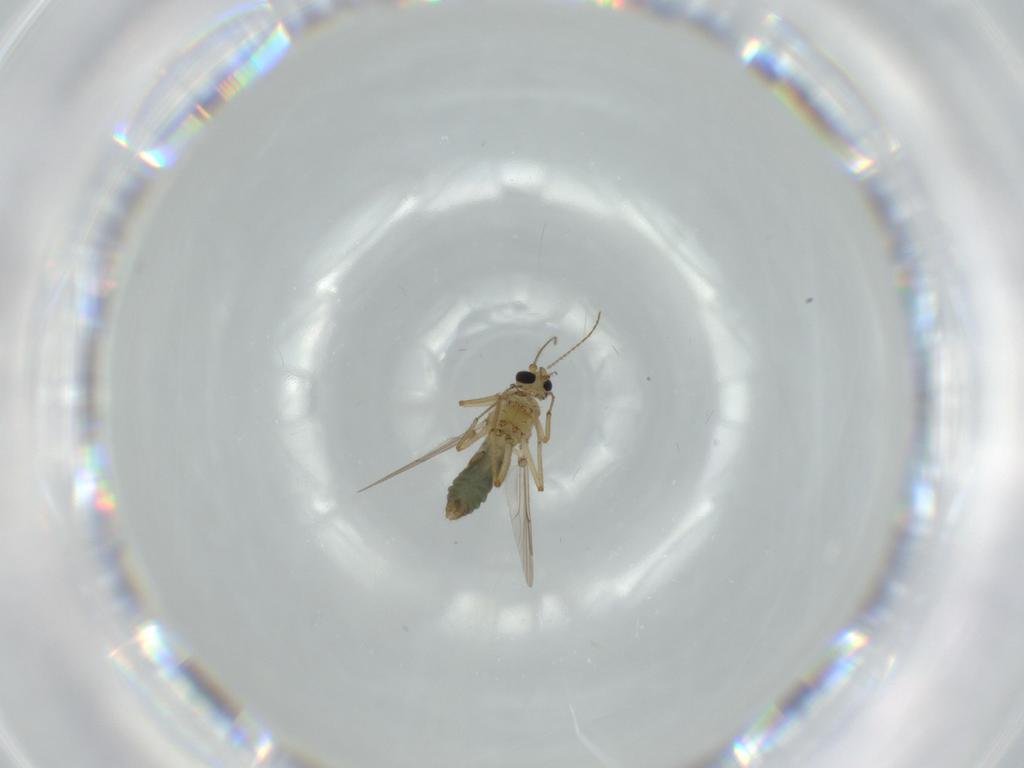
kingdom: Animalia
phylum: Arthropoda
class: Insecta
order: Diptera
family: Ceratopogonidae
